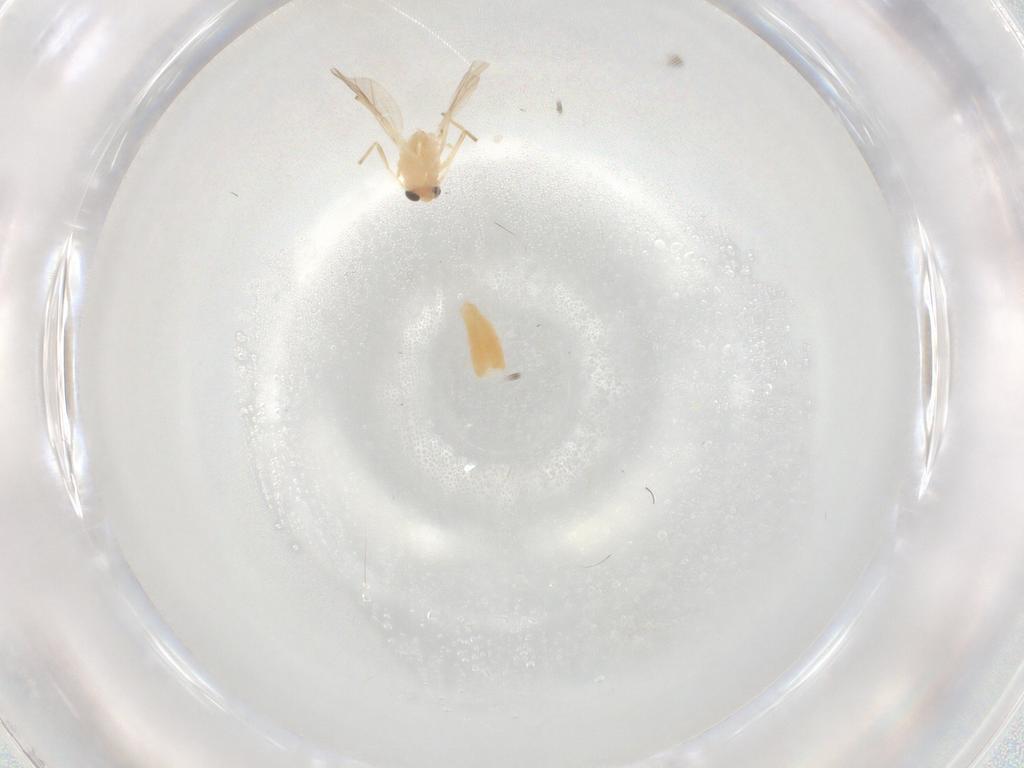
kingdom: Animalia
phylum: Arthropoda
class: Insecta
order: Diptera
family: Chironomidae
